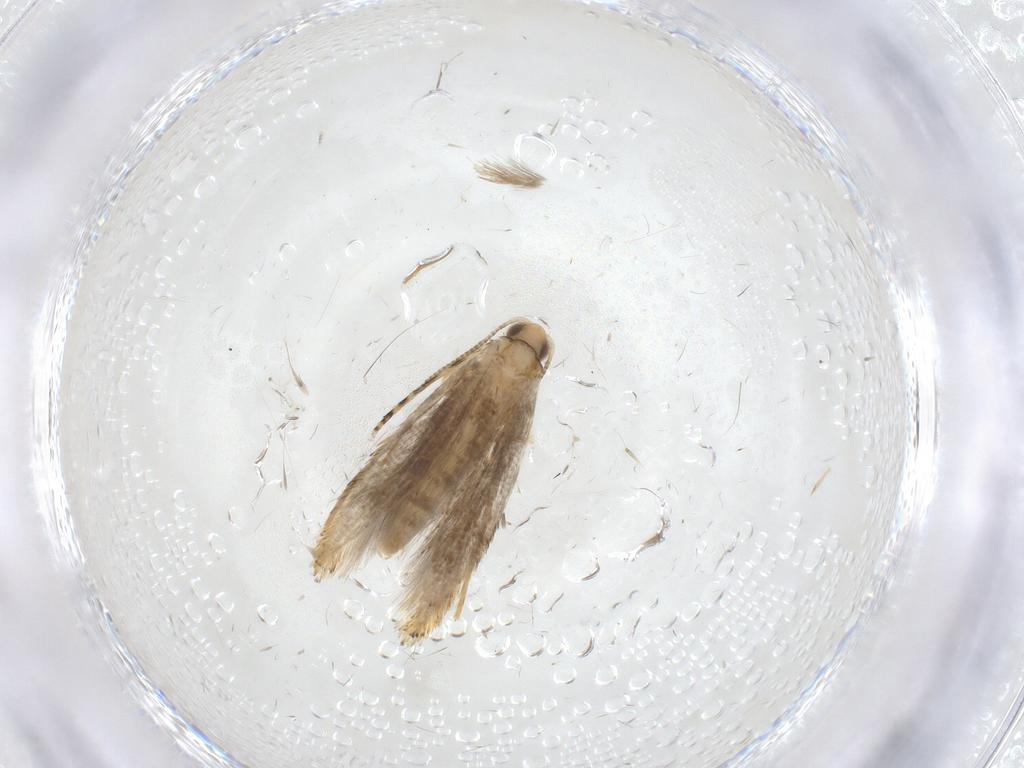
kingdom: Animalia
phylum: Arthropoda
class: Insecta
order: Lepidoptera
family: Tineidae
